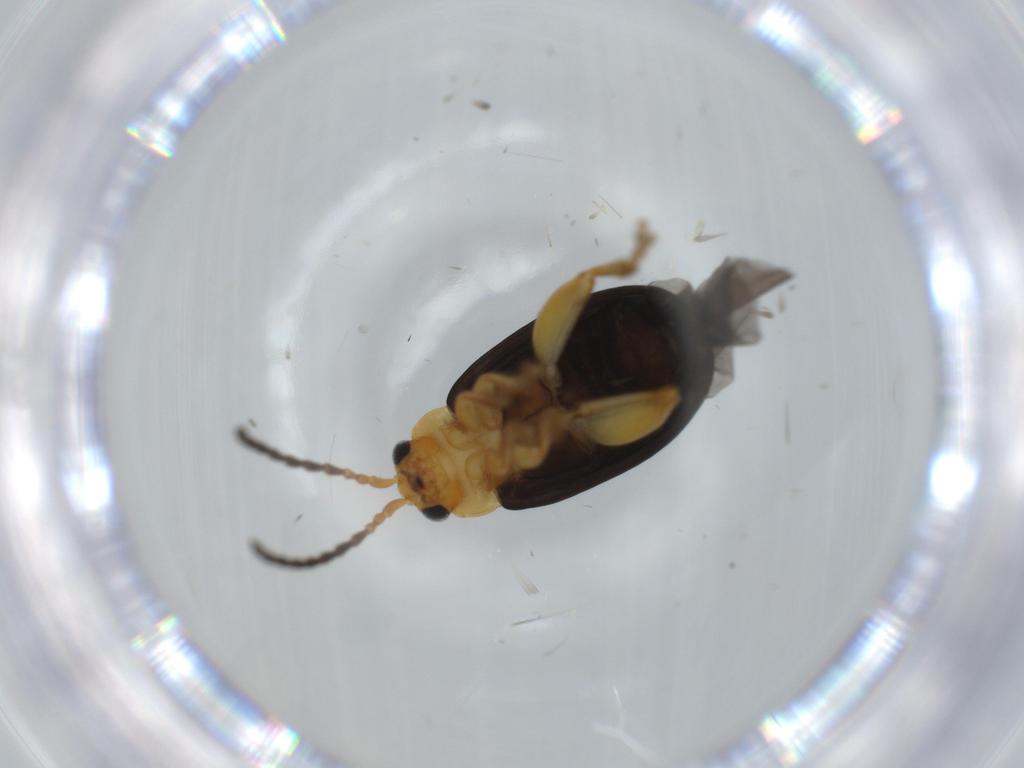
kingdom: Animalia
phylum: Arthropoda
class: Insecta
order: Coleoptera
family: Chrysomelidae
